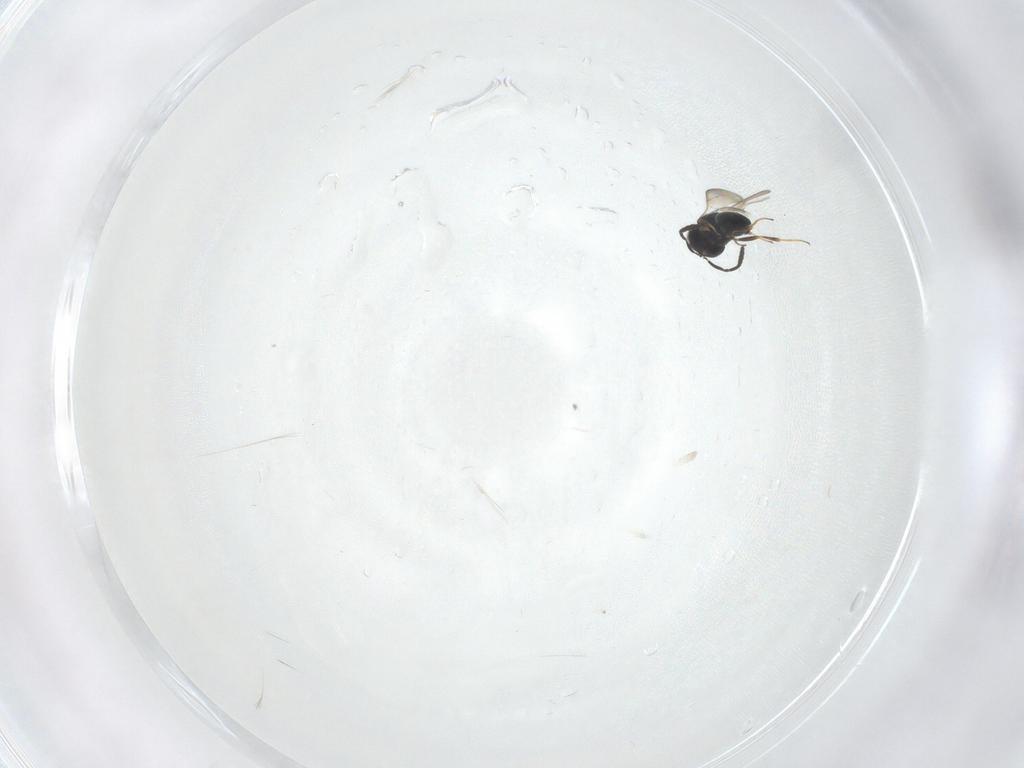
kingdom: Animalia
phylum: Arthropoda
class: Insecta
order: Hymenoptera
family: Scelionidae
